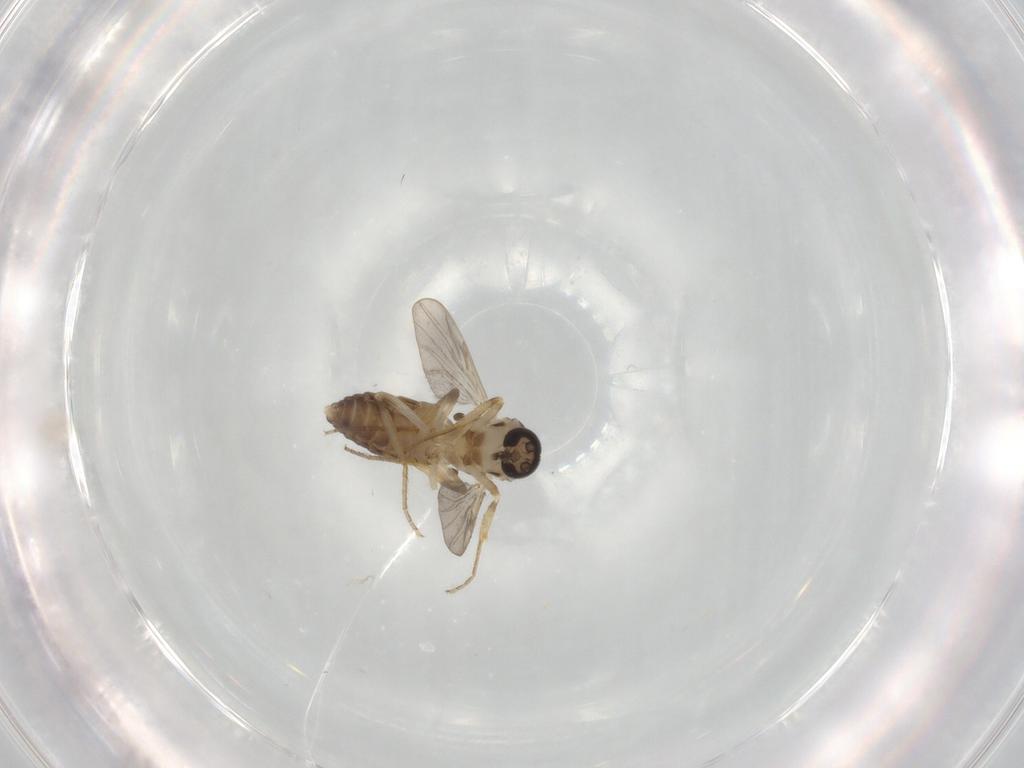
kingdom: Animalia
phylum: Arthropoda
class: Insecta
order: Diptera
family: Ceratopogonidae
